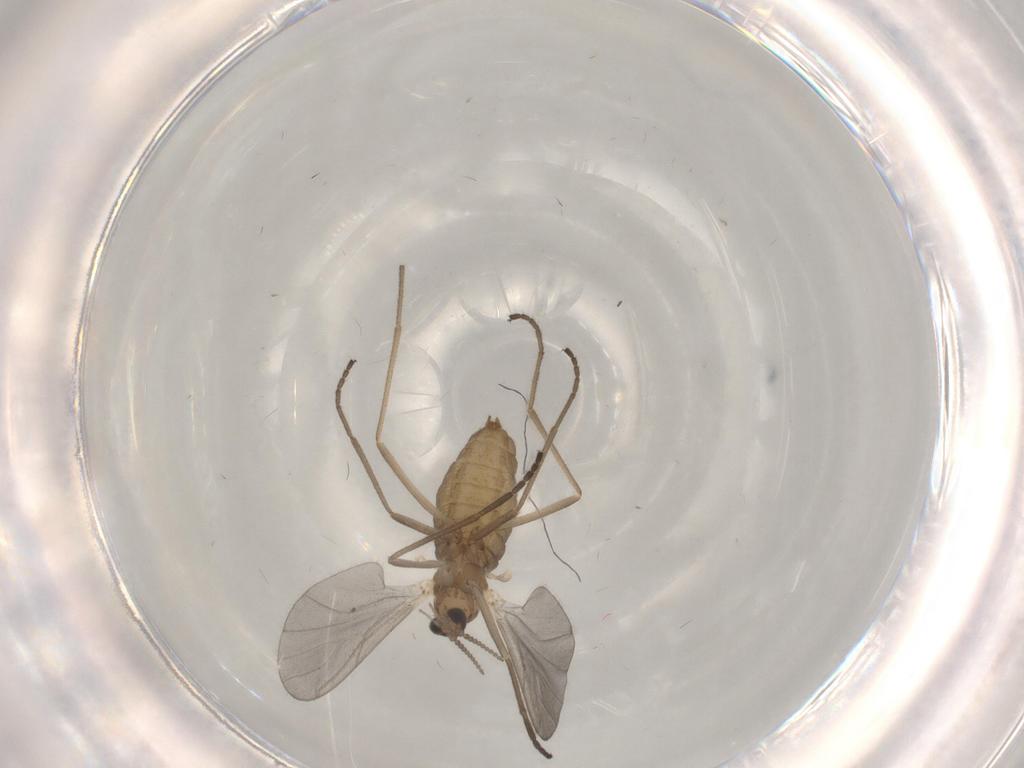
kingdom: Animalia
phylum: Arthropoda
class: Insecta
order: Diptera
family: Cecidomyiidae
